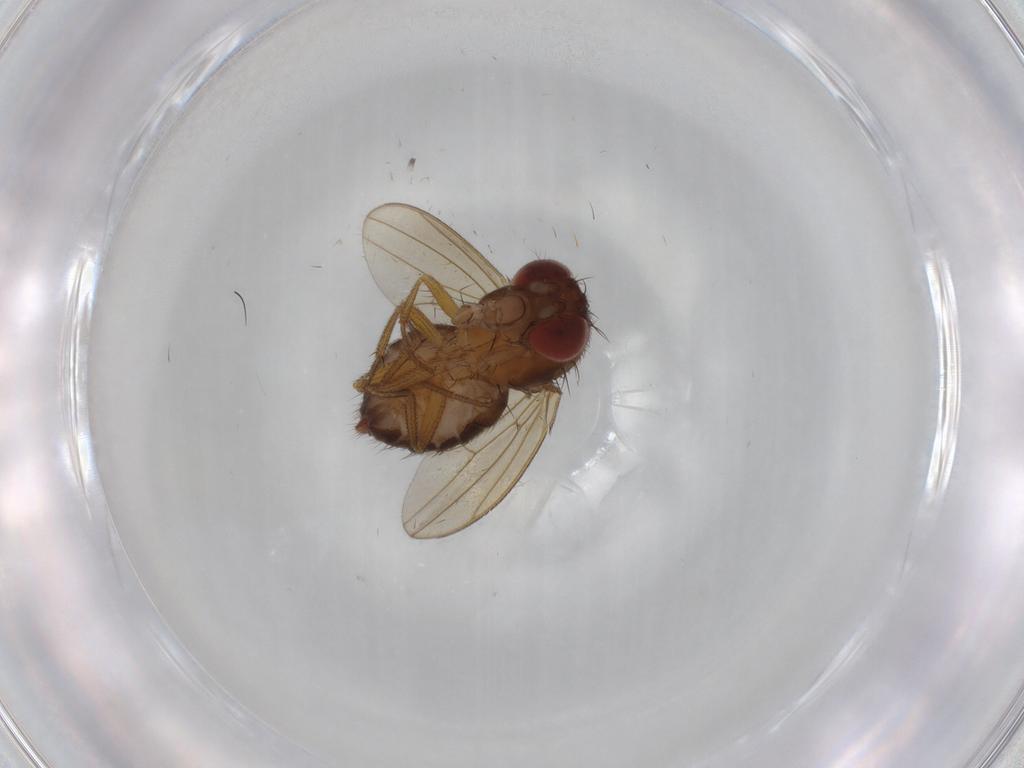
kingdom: Animalia
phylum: Arthropoda
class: Insecta
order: Diptera
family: Drosophilidae
